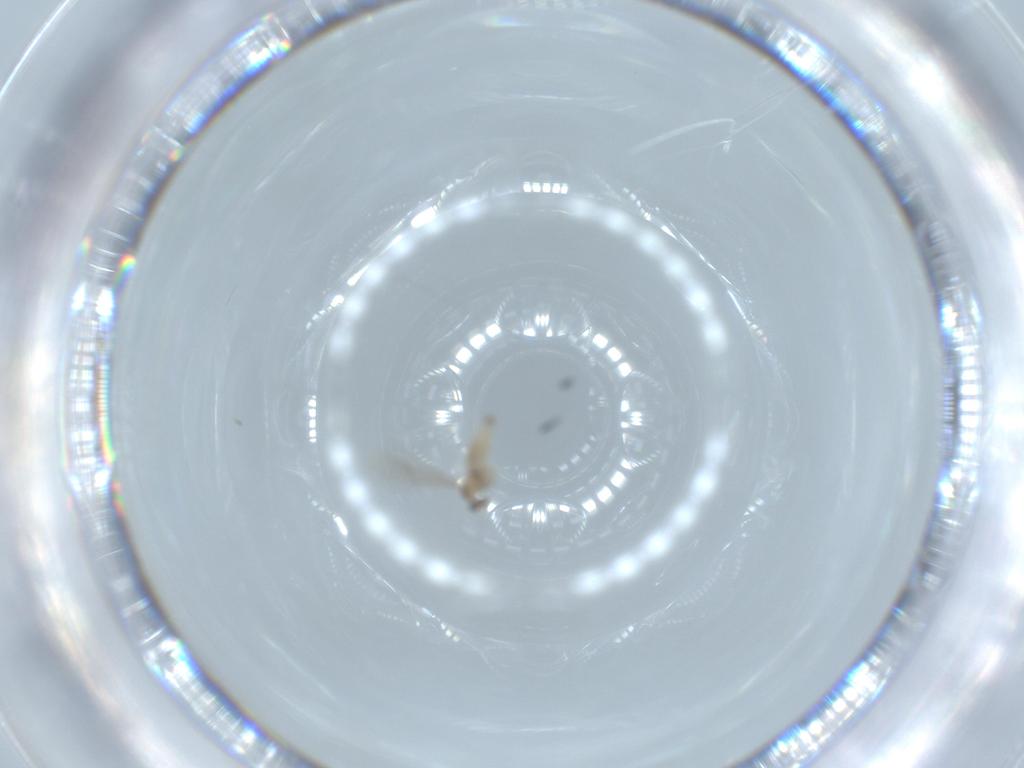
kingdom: Animalia
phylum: Arthropoda
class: Insecta
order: Diptera
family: Cecidomyiidae
